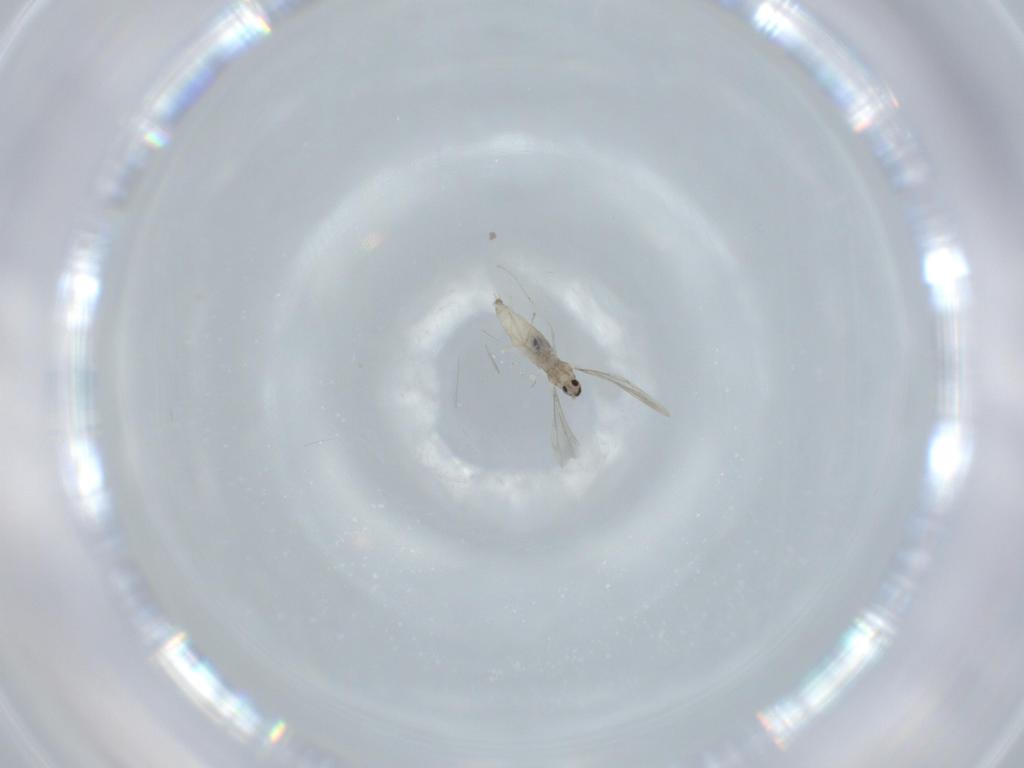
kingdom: Animalia
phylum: Arthropoda
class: Insecta
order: Diptera
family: Cecidomyiidae
